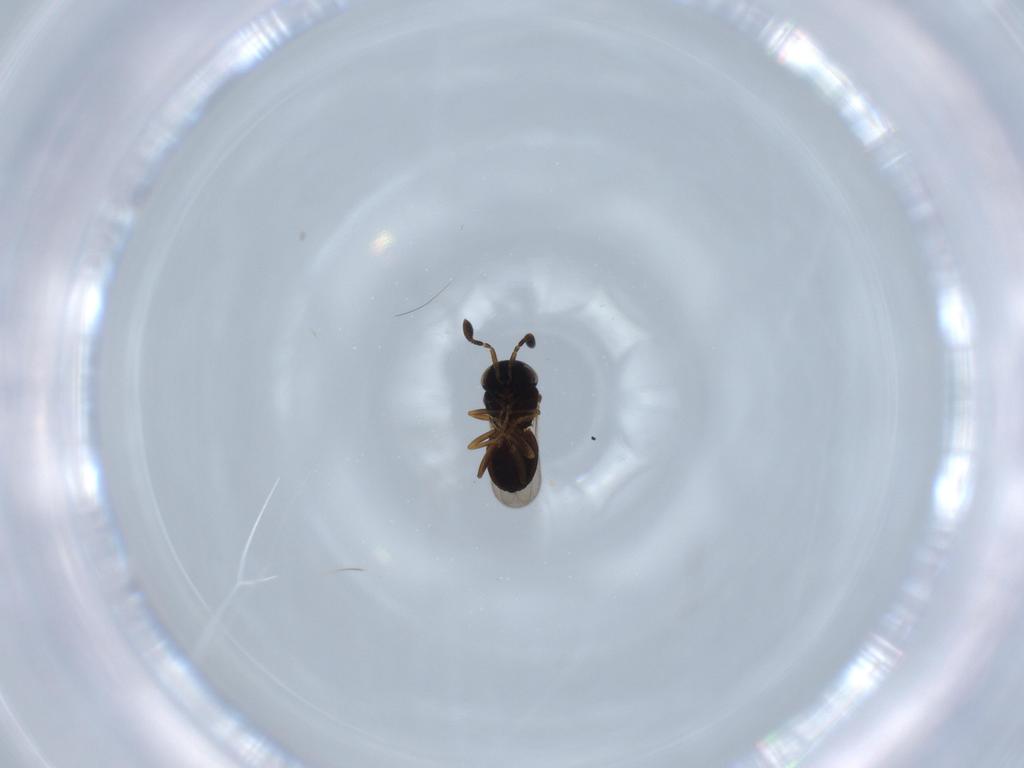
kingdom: Animalia
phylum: Arthropoda
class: Insecta
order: Hymenoptera
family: Scelionidae
